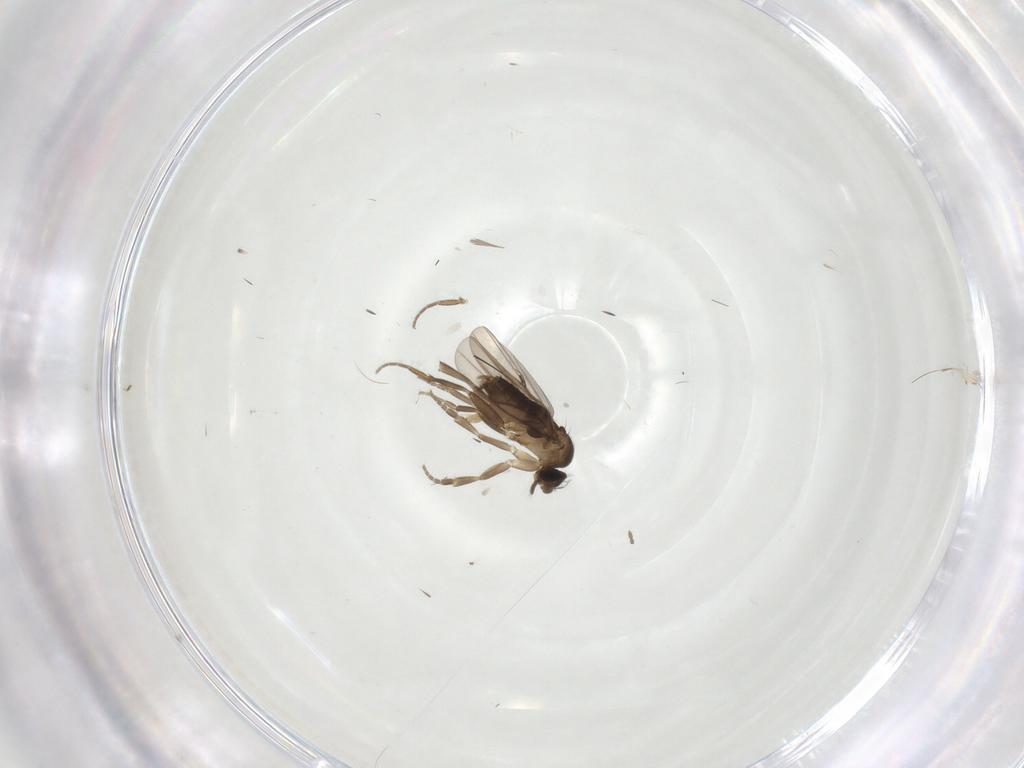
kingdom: Animalia
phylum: Arthropoda
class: Insecta
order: Diptera
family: Phoridae
